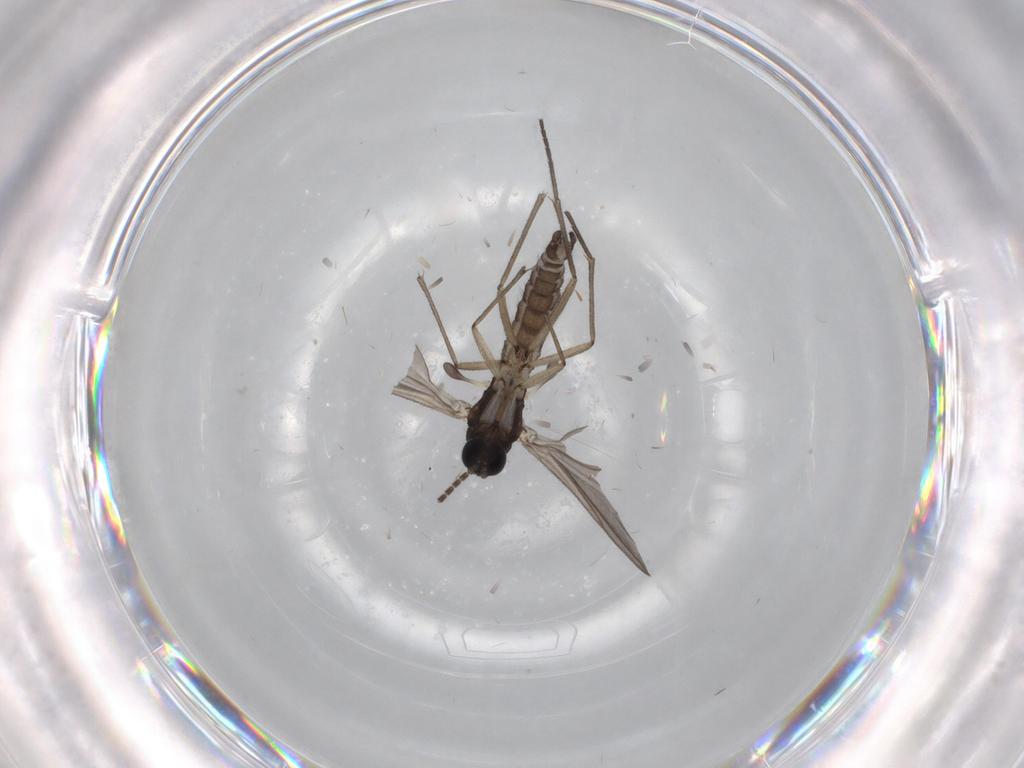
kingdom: Animalia
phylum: Arthropoda
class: Insecta
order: Diptera
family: Sciaridae
